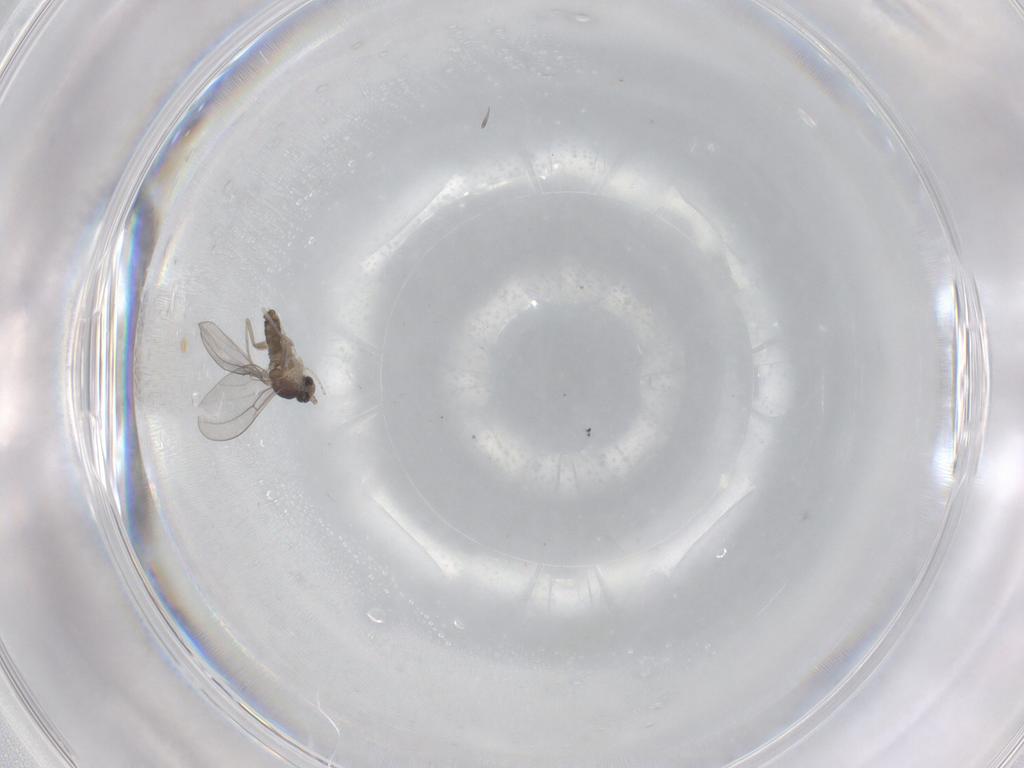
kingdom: Animalia
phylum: Arthropoda
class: Insecta
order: Diptera
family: Cecidomyiidae
